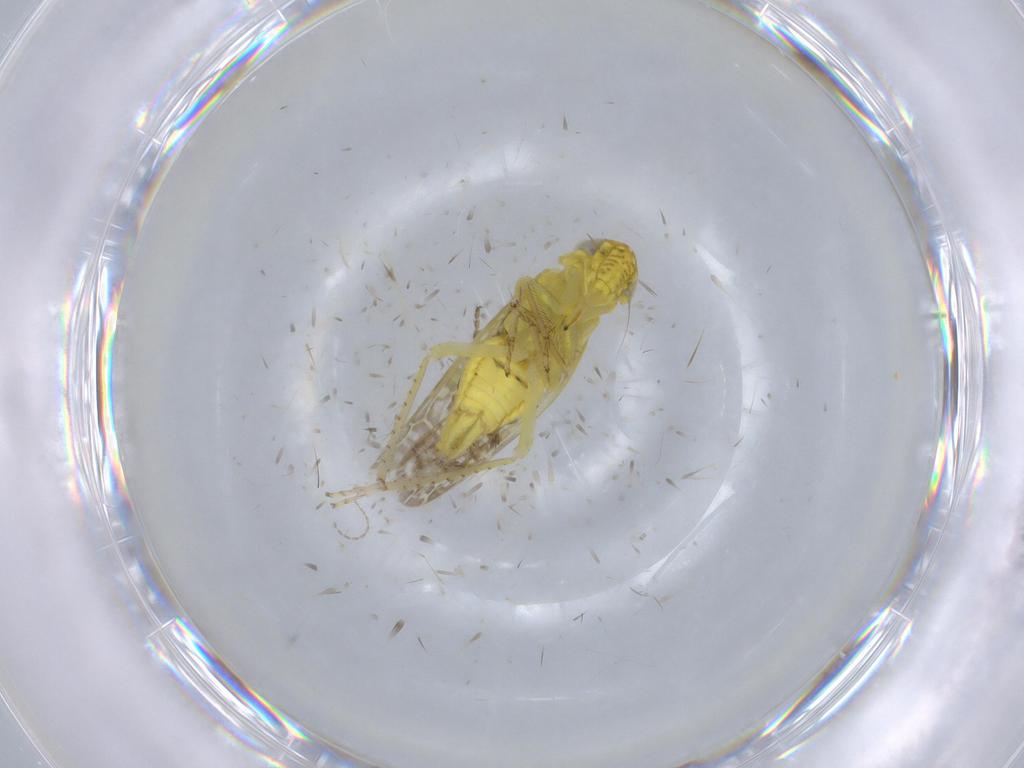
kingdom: Animalia
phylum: Arthropoda
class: Insecta
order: Hemiptera
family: Cicadellidae
